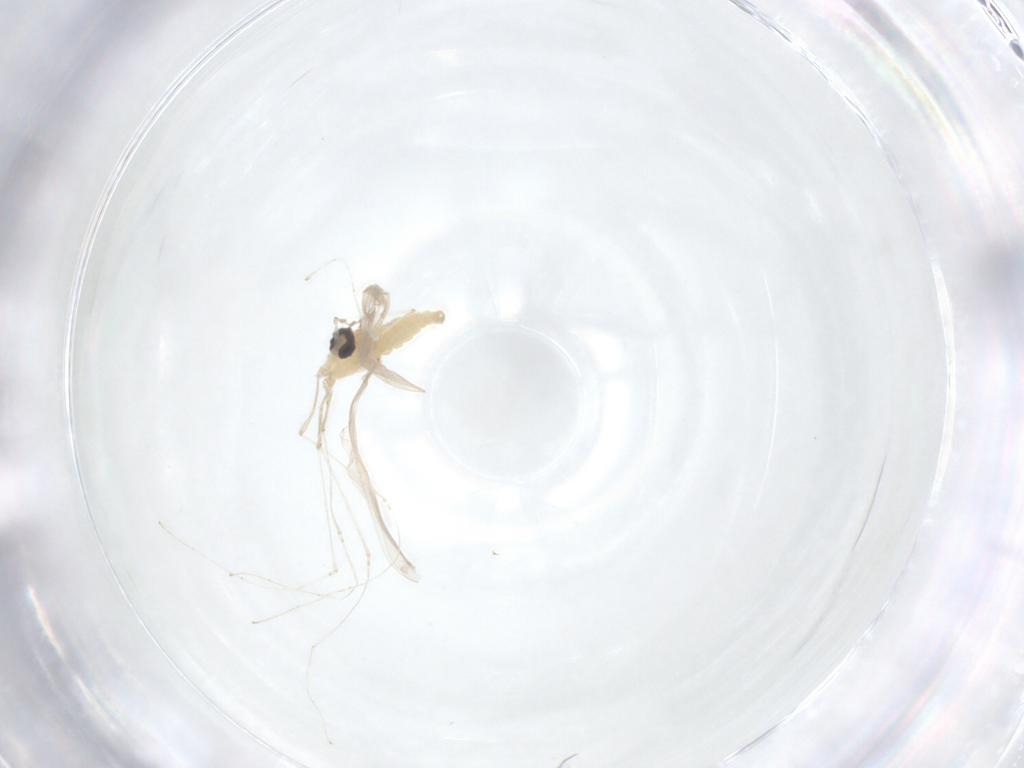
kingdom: Animalia
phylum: Arthropoda
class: Insecta
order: Diptera
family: Cecidomyiidae
